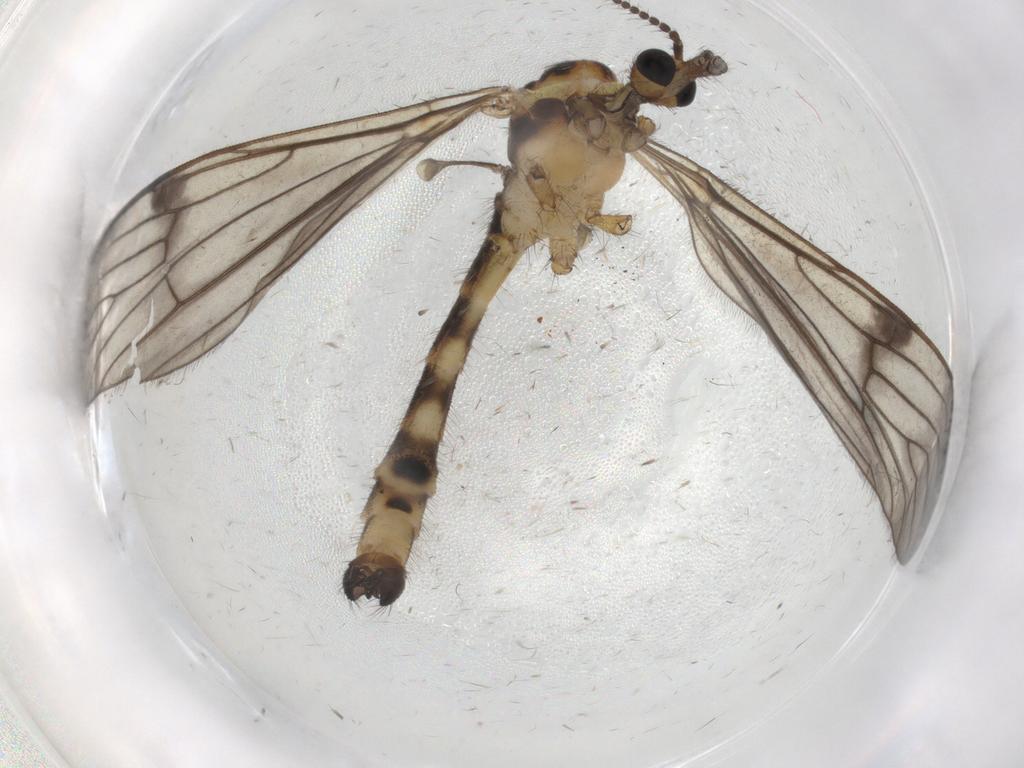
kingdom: Animalia
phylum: Arthropoda
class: Insecta
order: Diptera
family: Limoniidae
